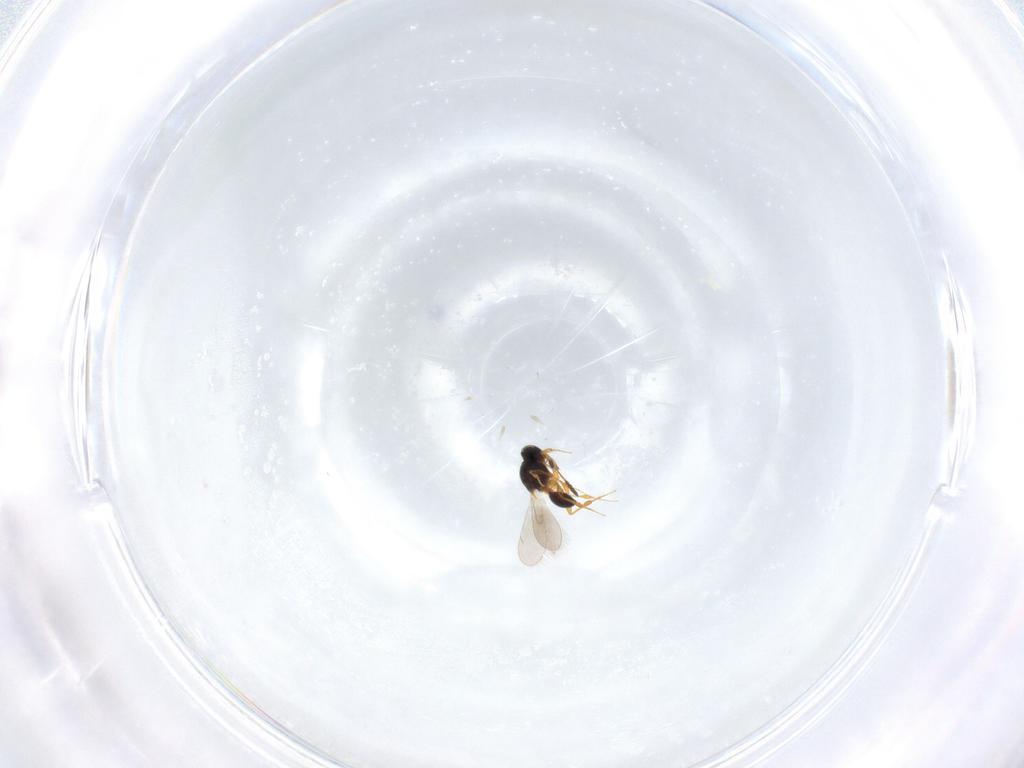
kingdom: Animalia
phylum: Arthropoda
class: Insecta
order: Hymenoptera
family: Platygastridae
